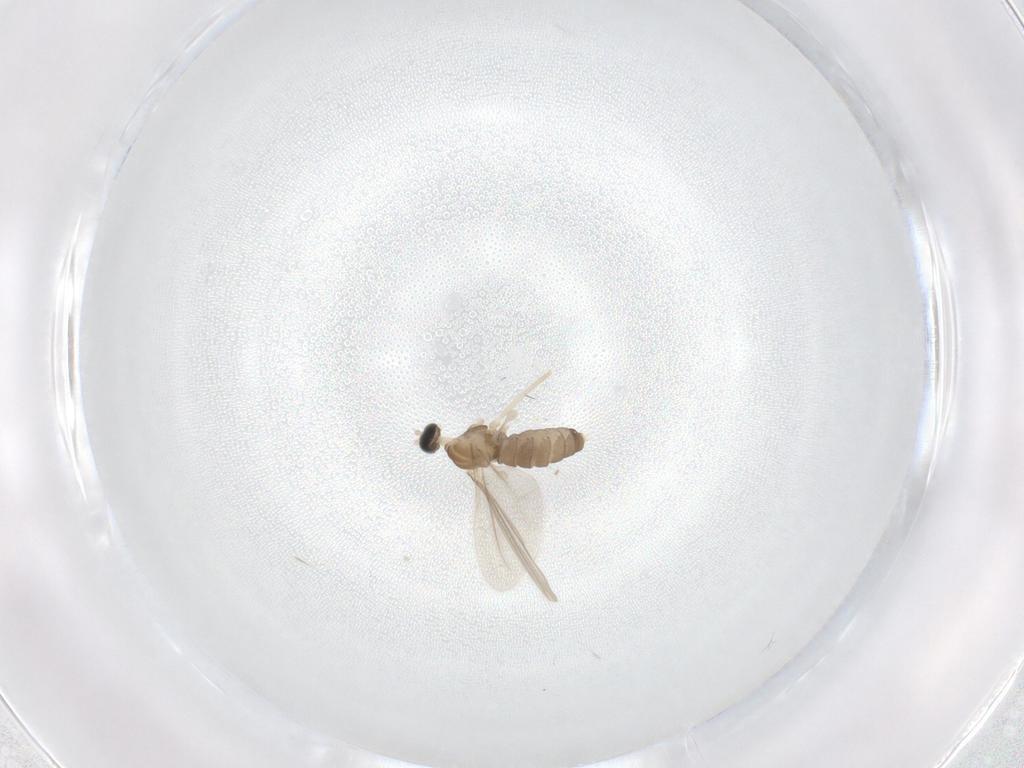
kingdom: Animalia
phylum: Arthropoda
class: Insecta
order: Diptera
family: Cecidomyiidae
